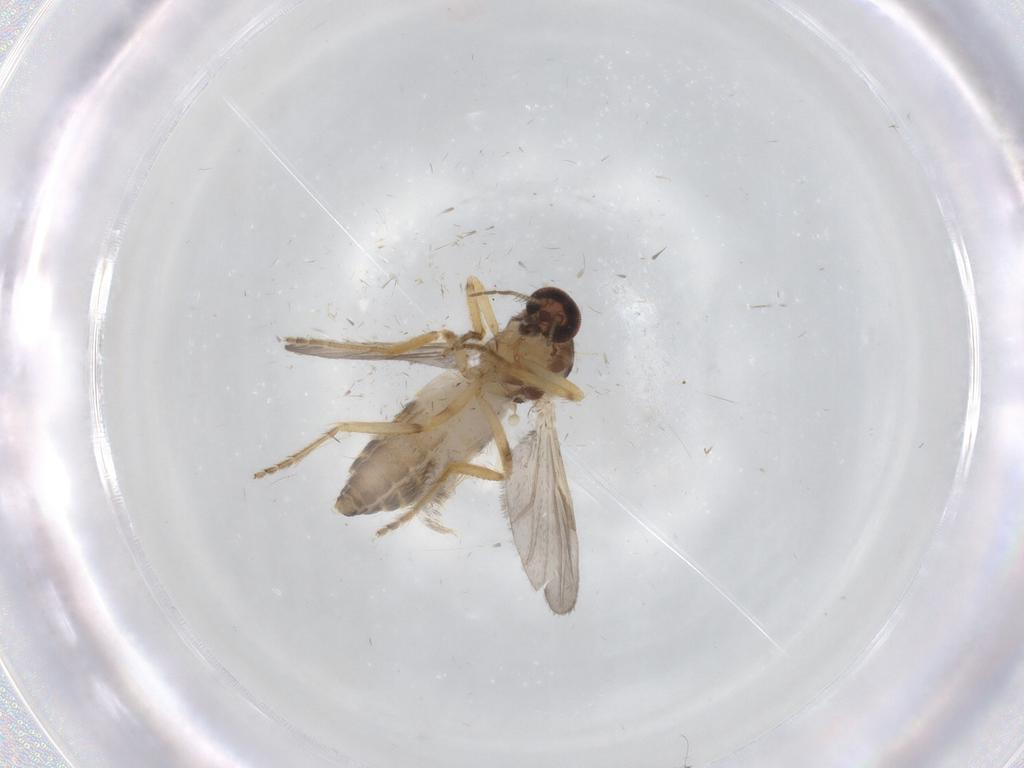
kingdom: Animalia
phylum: Arthropoda
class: Insecta
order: Diptera
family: Ceratopogonidae
